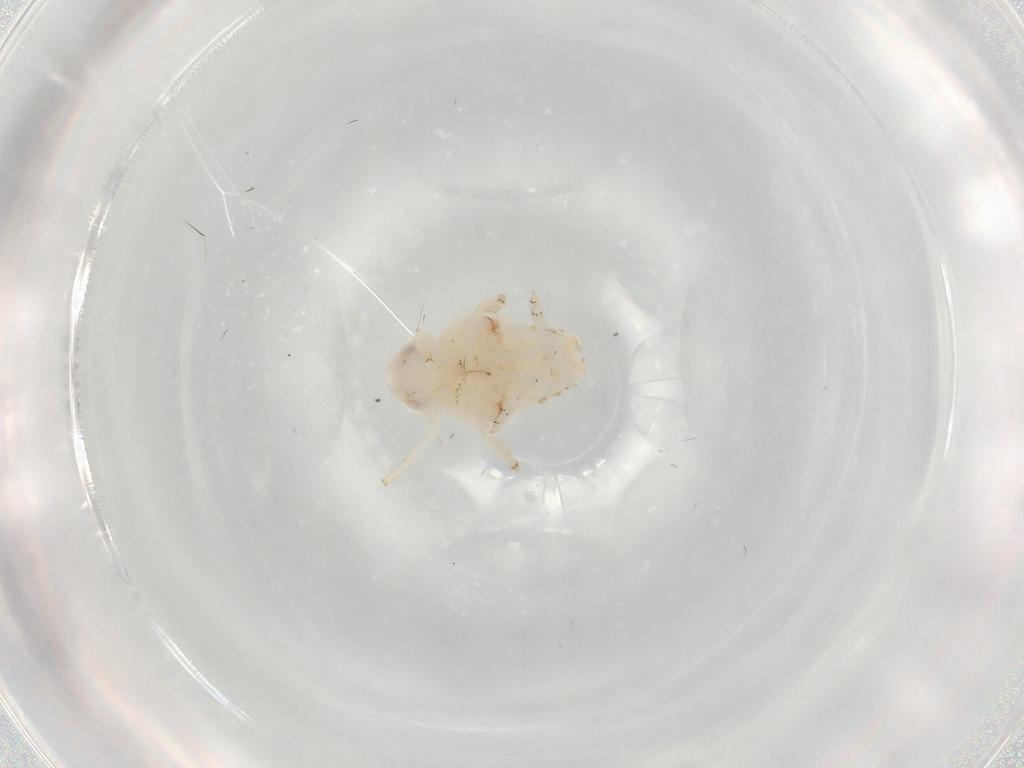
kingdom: Animalia
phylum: Arthropoda
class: Insecta
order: Hemiptera
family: Nogodinidae
